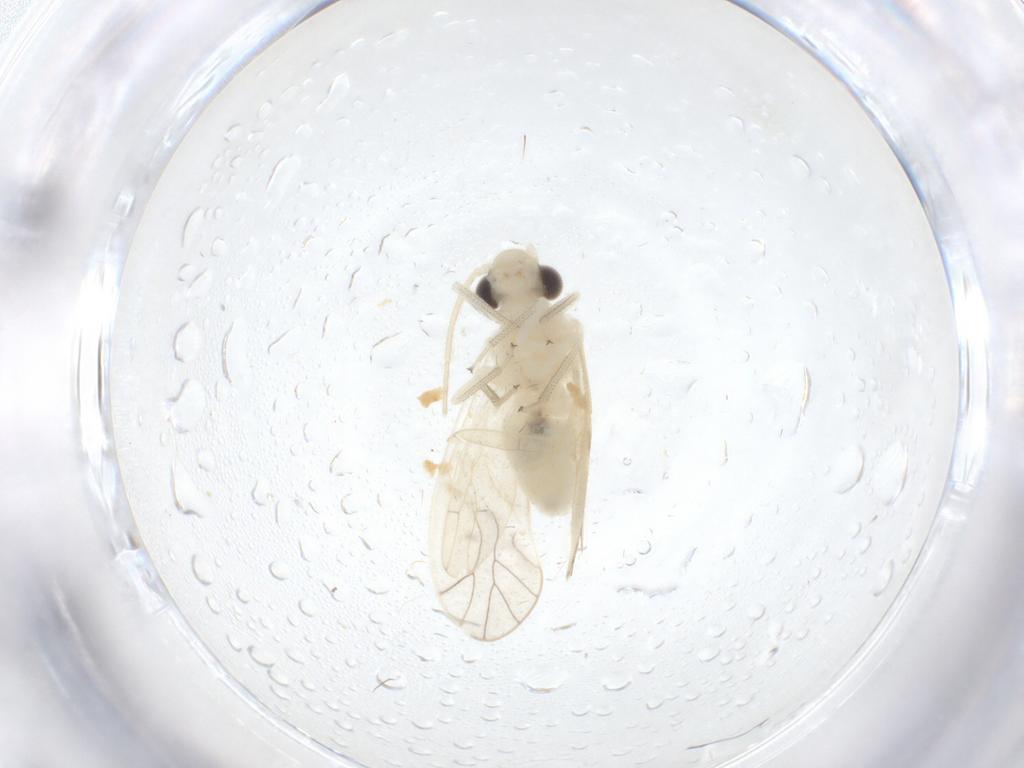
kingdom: Animalia
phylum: Arthropoda
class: Insecta
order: Psocodea
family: Caeciliusidae
